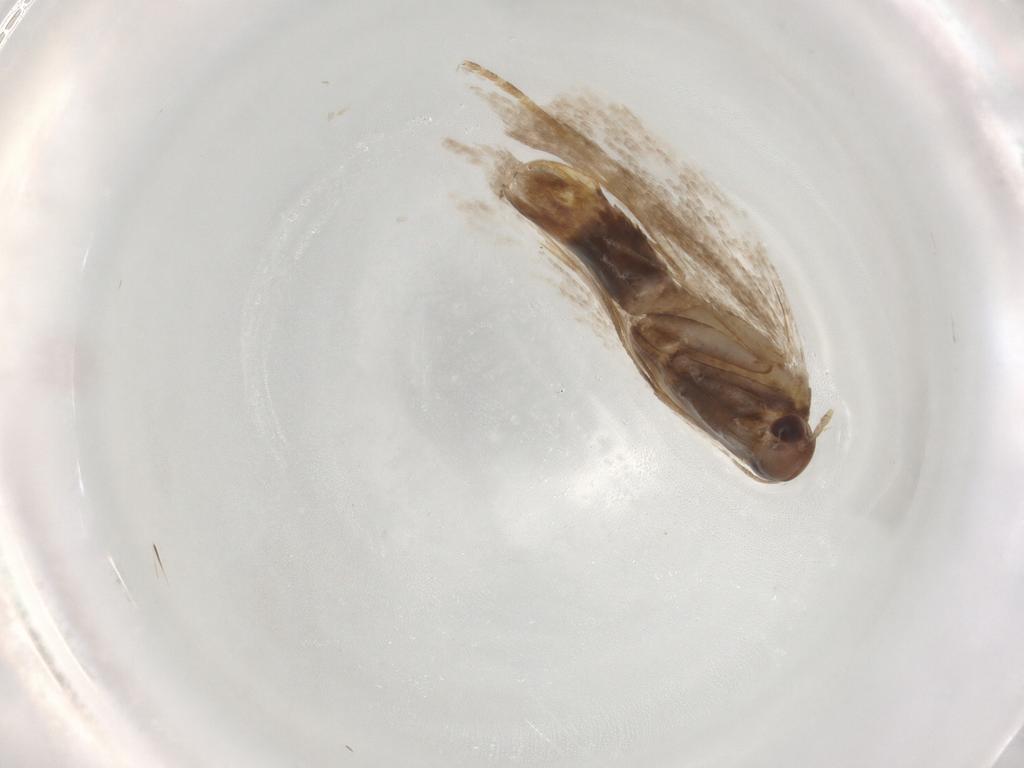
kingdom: Animalia
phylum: Arthropoda
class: Insecta
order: Lepidoptera
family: Gelechiidae
